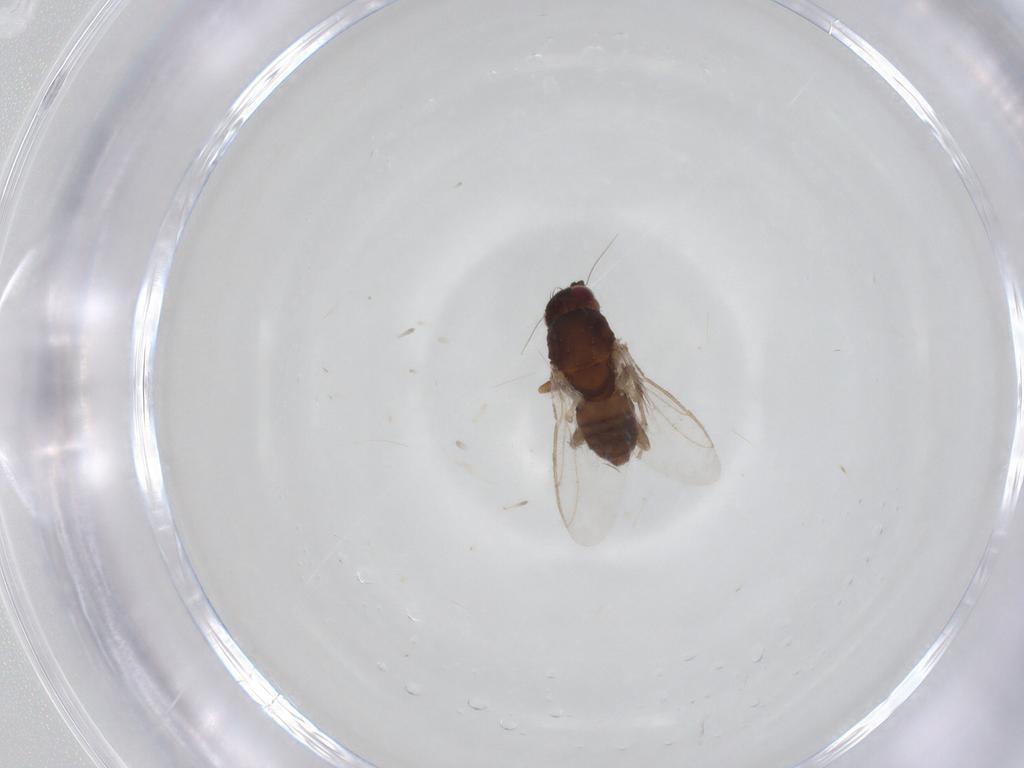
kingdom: Animalia
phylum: Arthropoda
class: Insecta
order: Diptera
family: Sphaeroceridae
